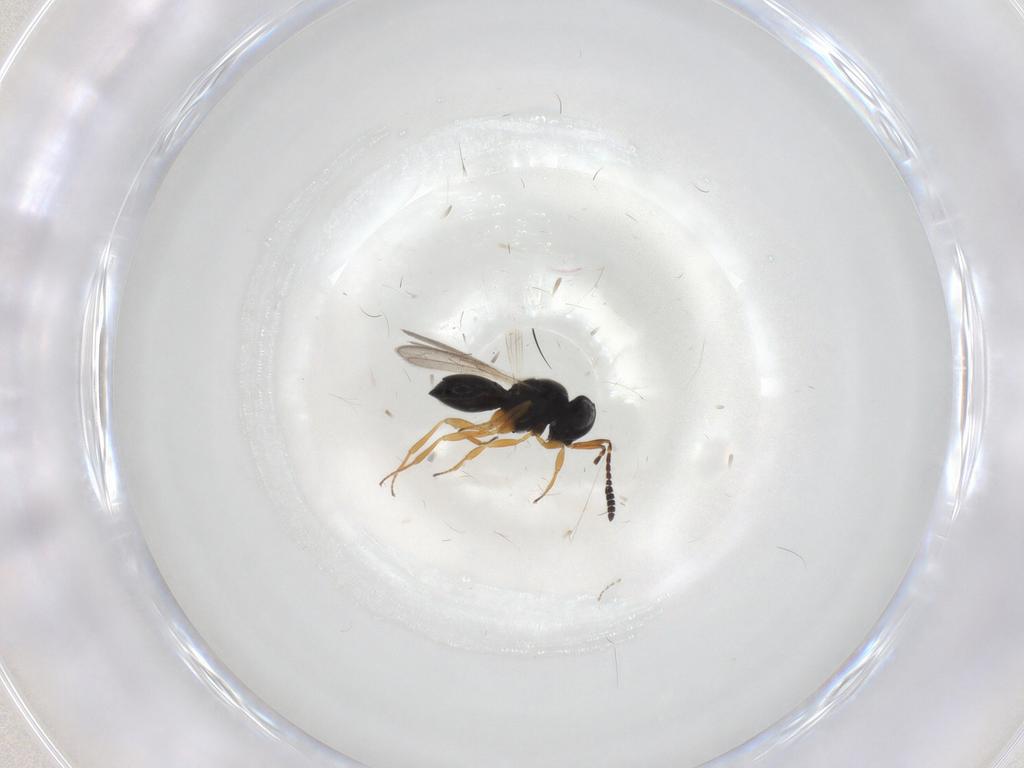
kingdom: Animalia
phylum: Arthropoda
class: Insecta
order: Hymenoptera
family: Scelionidae
